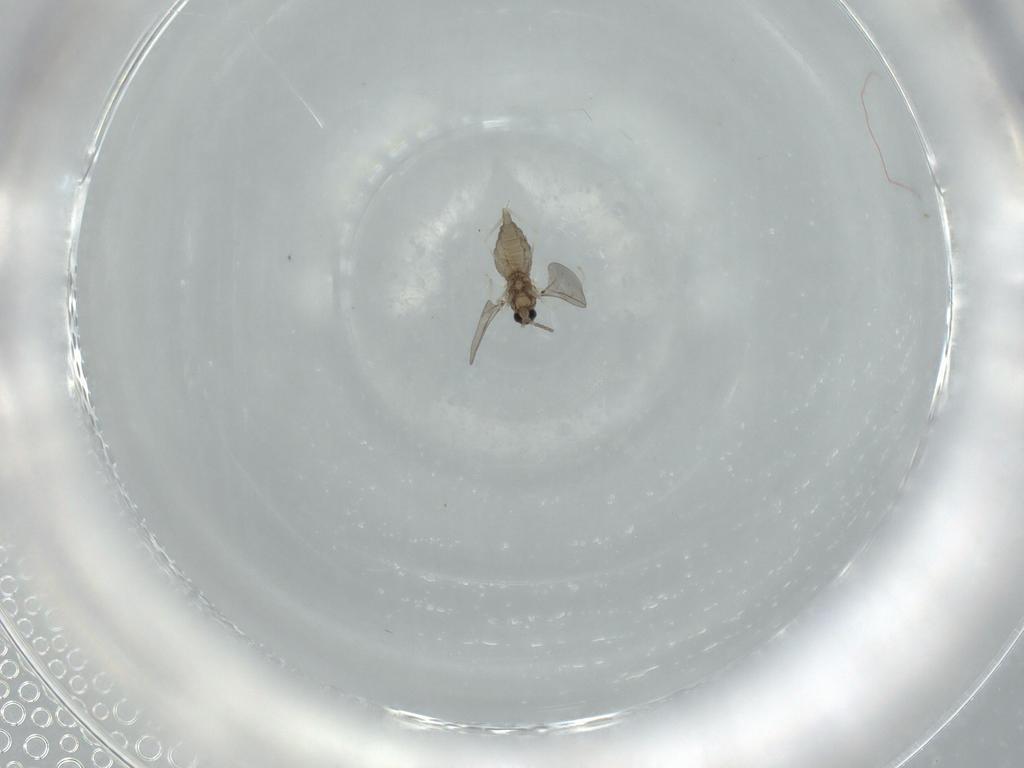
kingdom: Animalia
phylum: Arthropoda
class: Insecta
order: Diptera
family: Cecidomyiidae
